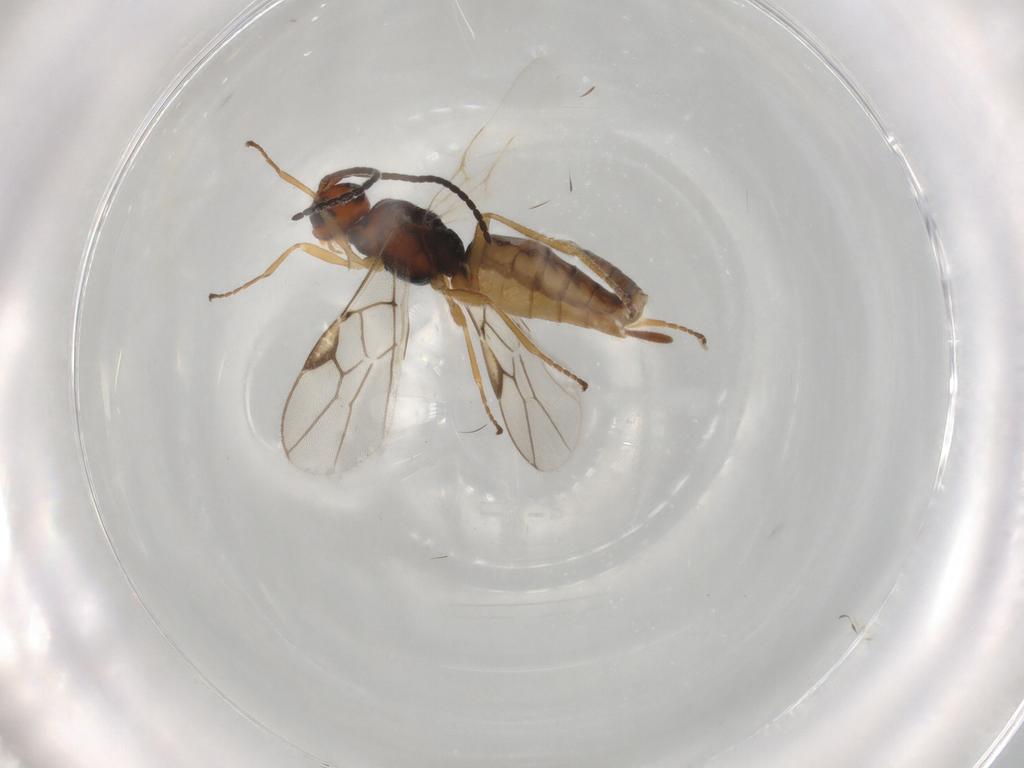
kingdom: Animalia
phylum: Arthropoda
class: Insecta
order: Hymenoptera
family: Braconidae
